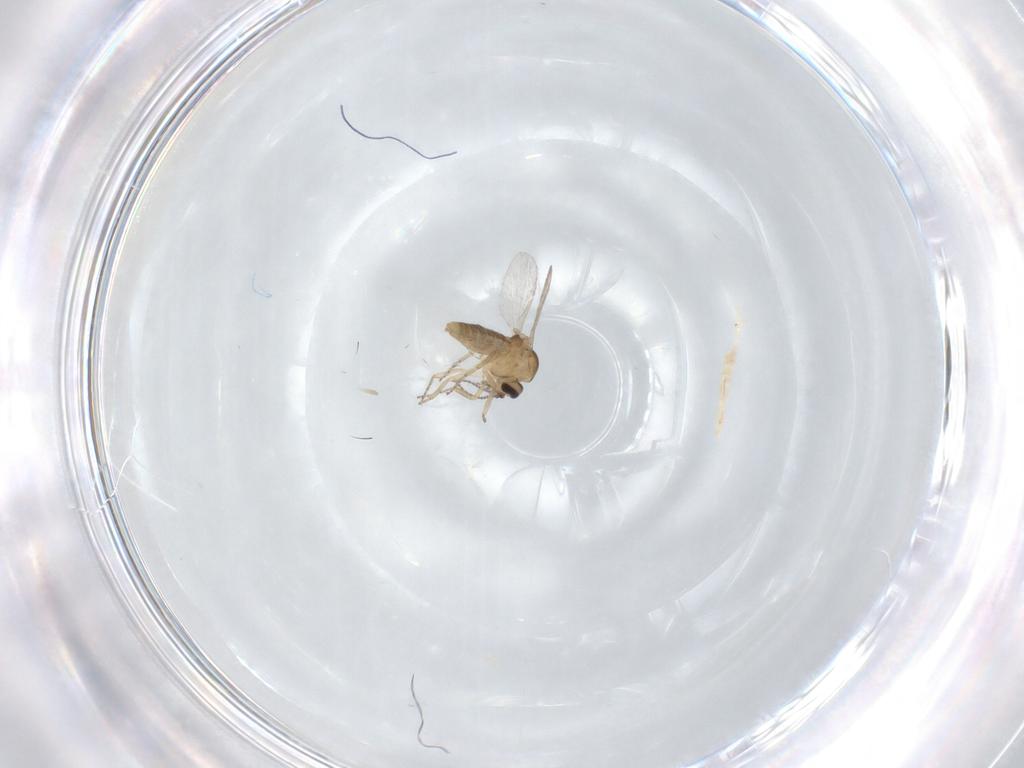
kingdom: Animalia
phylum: Arthropoda
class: Insecta
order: Diptera
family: Ceratopogonidae
